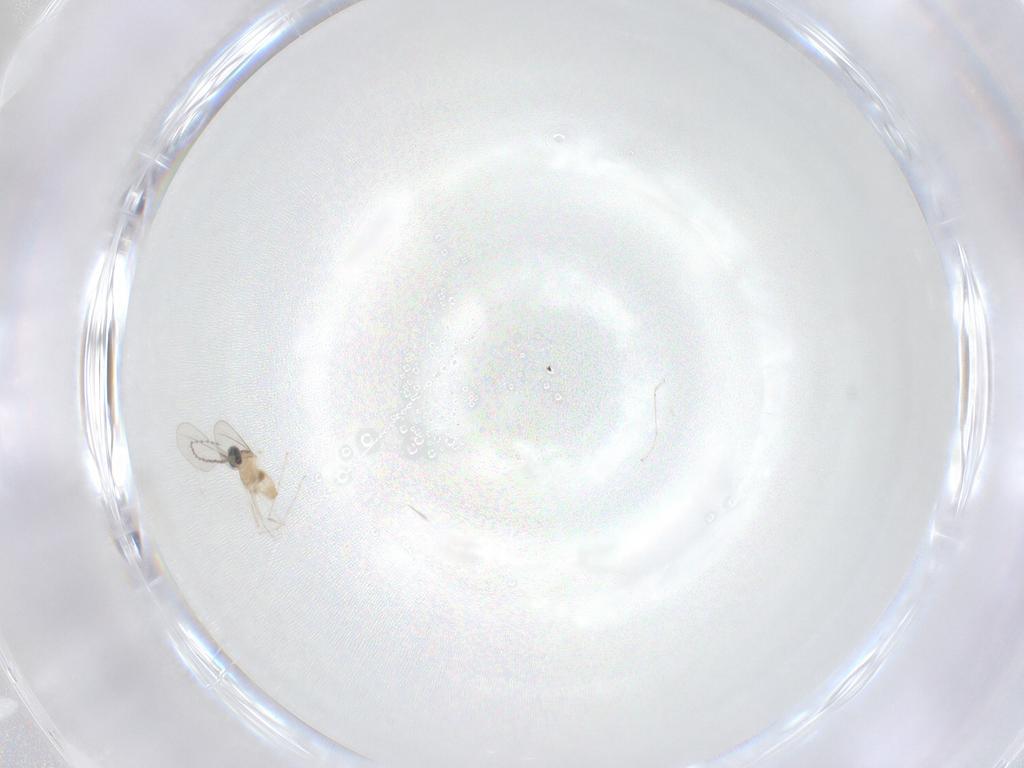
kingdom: Animalia
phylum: Arthropoda
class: Insecta
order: Diptera
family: Cecidomyiidae
